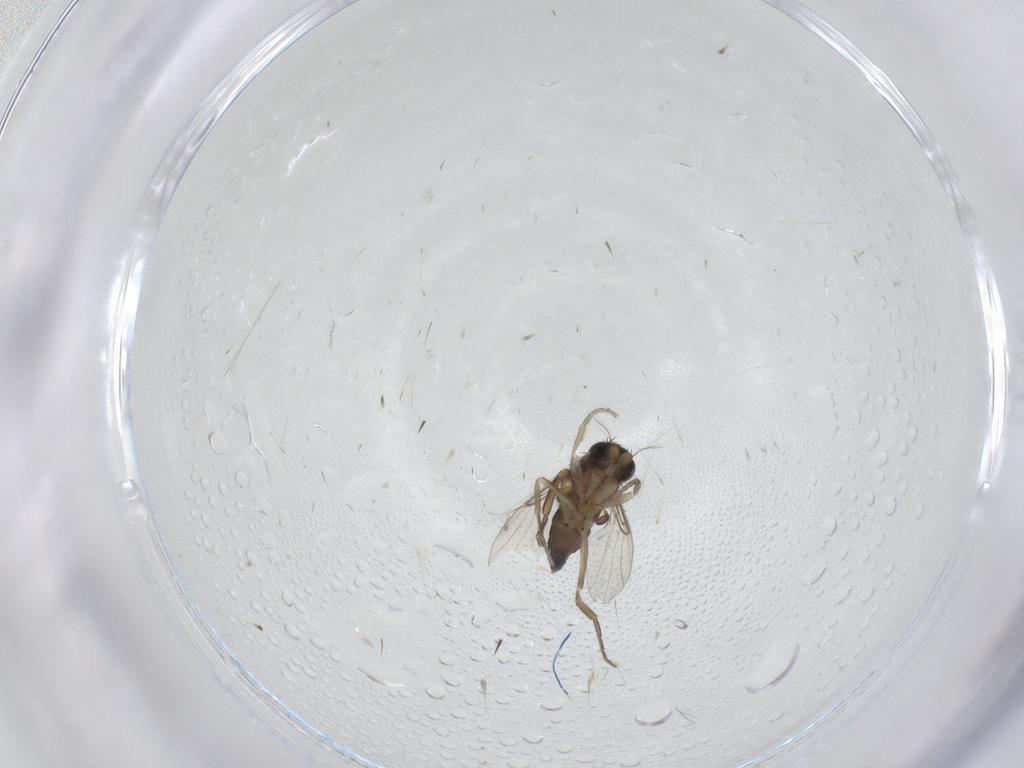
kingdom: Animalia
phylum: Arthropoda
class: Insecta
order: Diptera
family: Phoridae
